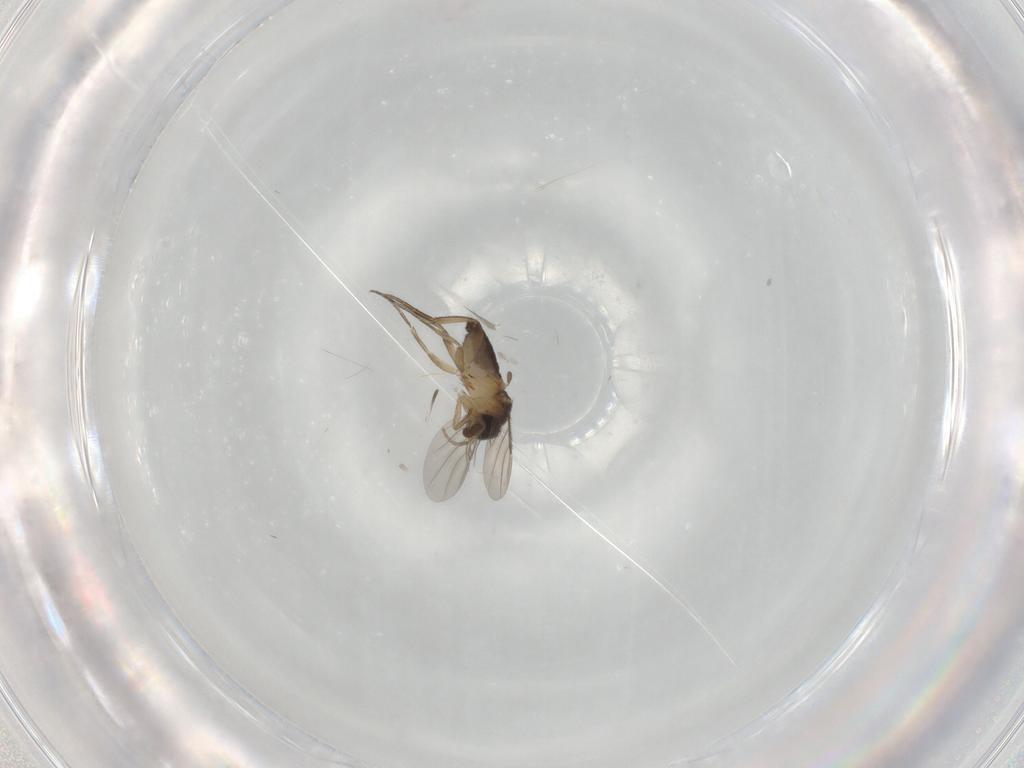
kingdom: Animalia
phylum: Arthropoda
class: Insecta
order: Diptera
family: Phoridae
